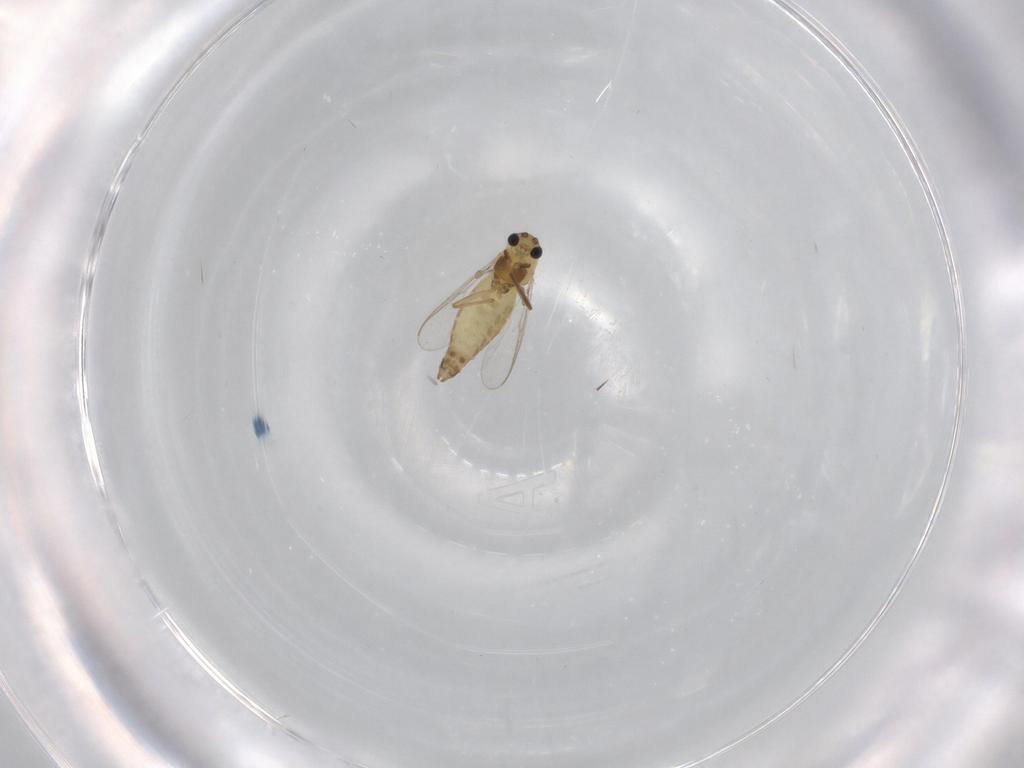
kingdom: Animalia
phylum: Arthropoda
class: Insecta
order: Diptera
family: Chironomidae
